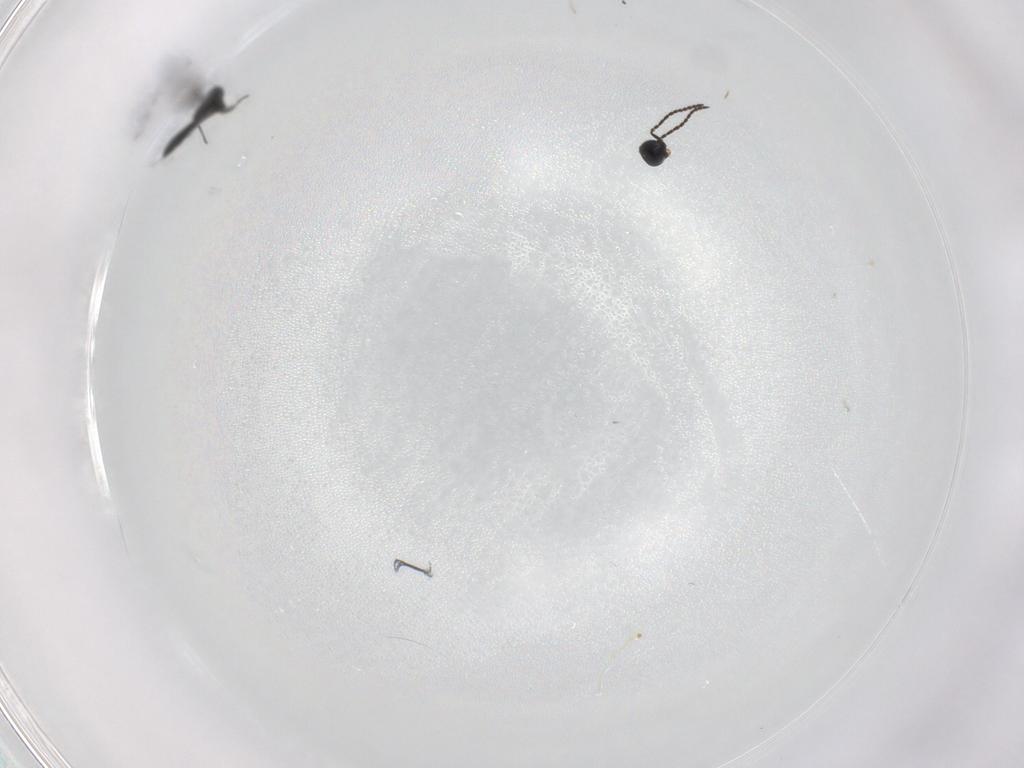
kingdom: Animalia
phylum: Arthropoda
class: Insecta
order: Hymenoptera
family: Scelionidae
